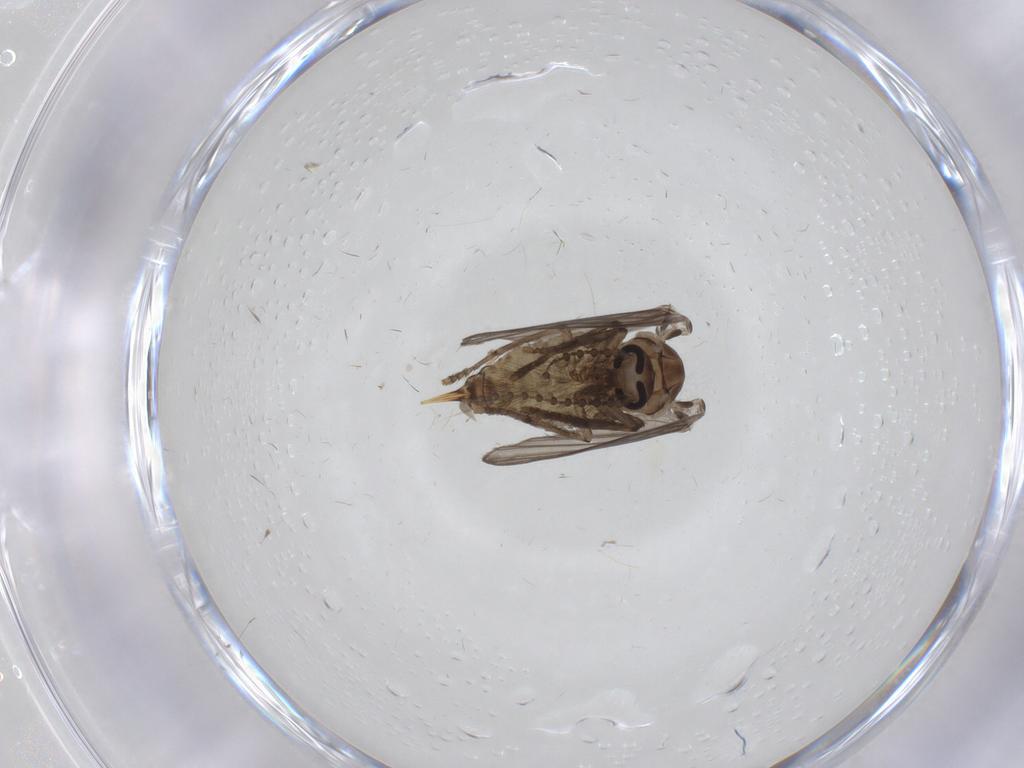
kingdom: Animalia
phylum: Arthropoda
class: Insecta
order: Diptera
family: Psychodidae
